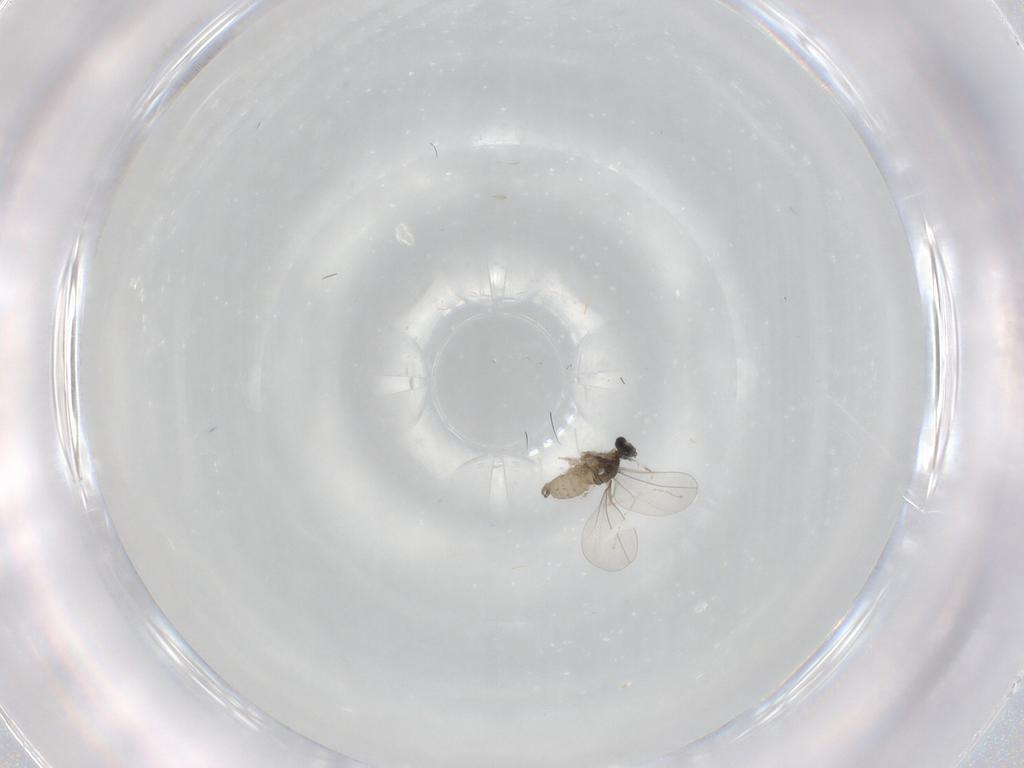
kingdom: Animalia
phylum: Arthropoda
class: Insecta
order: Diptera
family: Cecidomyiidae
